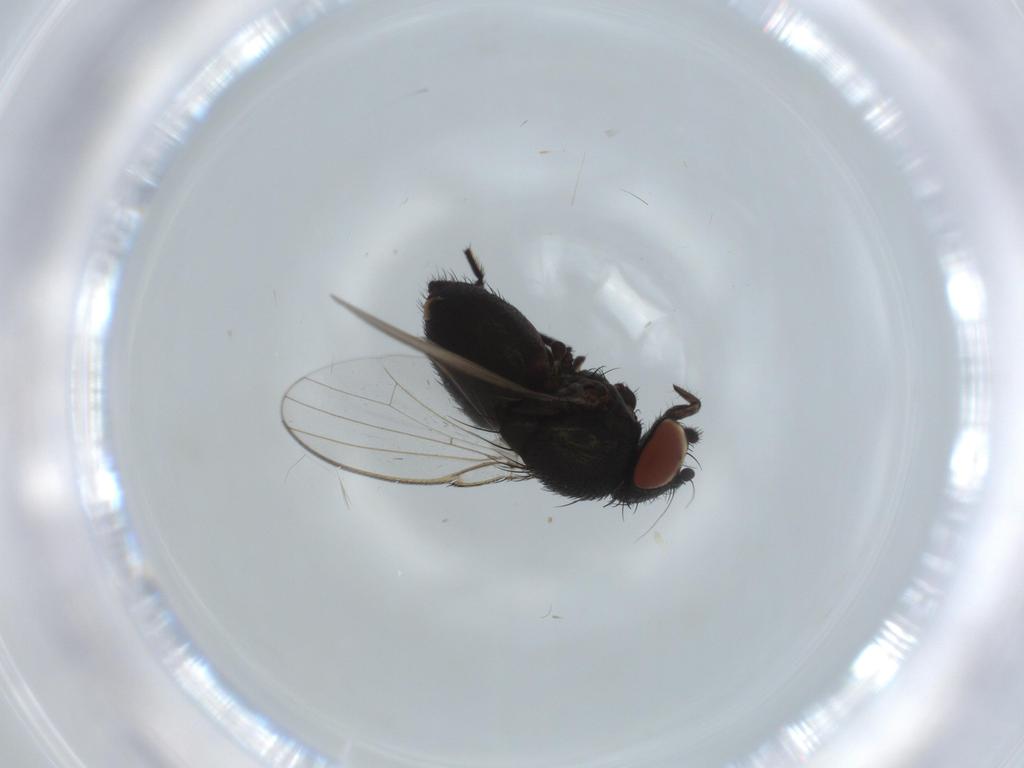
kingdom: Animalia
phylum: Arthropoda
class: Insecta
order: Diptera
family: Milichiidae
